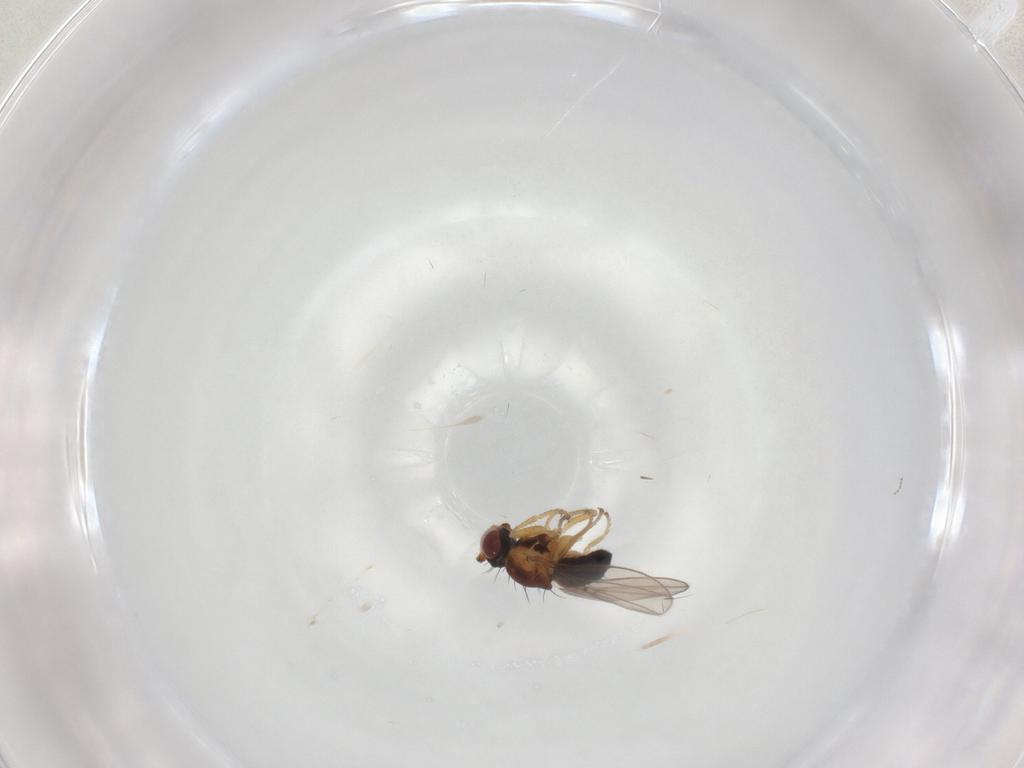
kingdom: Animalia
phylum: Arthropoda
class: Insecta
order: Diptera
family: Ephydridae
